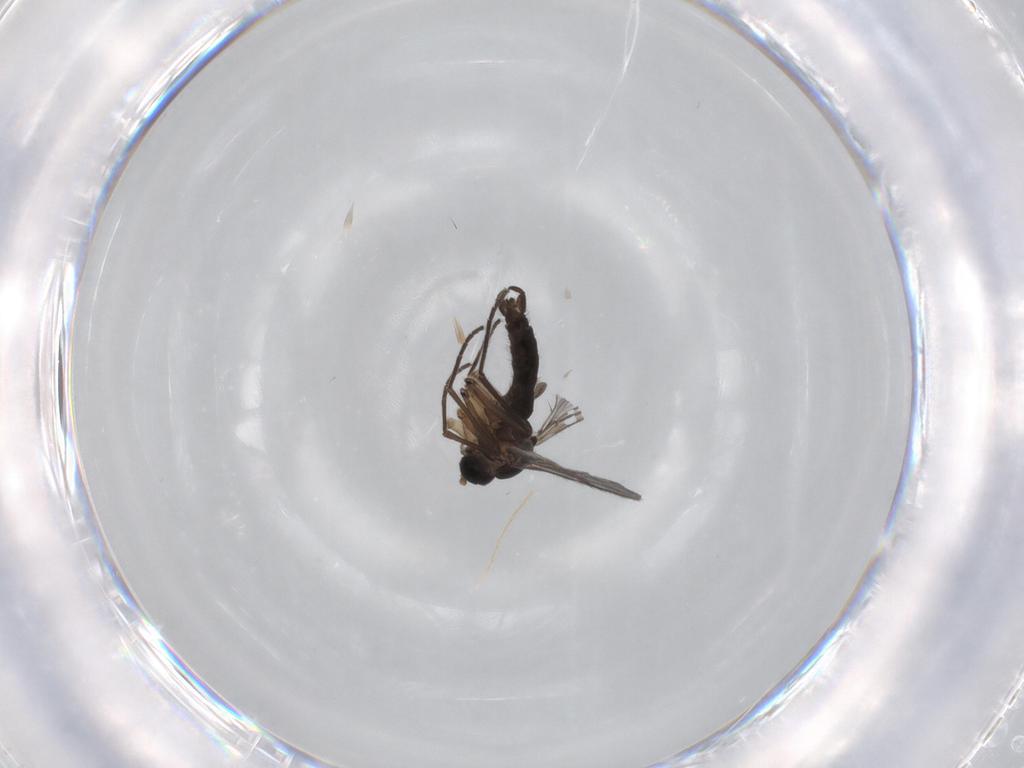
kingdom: Animalia
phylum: Arthropoda
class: Insecta
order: Diptera
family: Sciaridae
